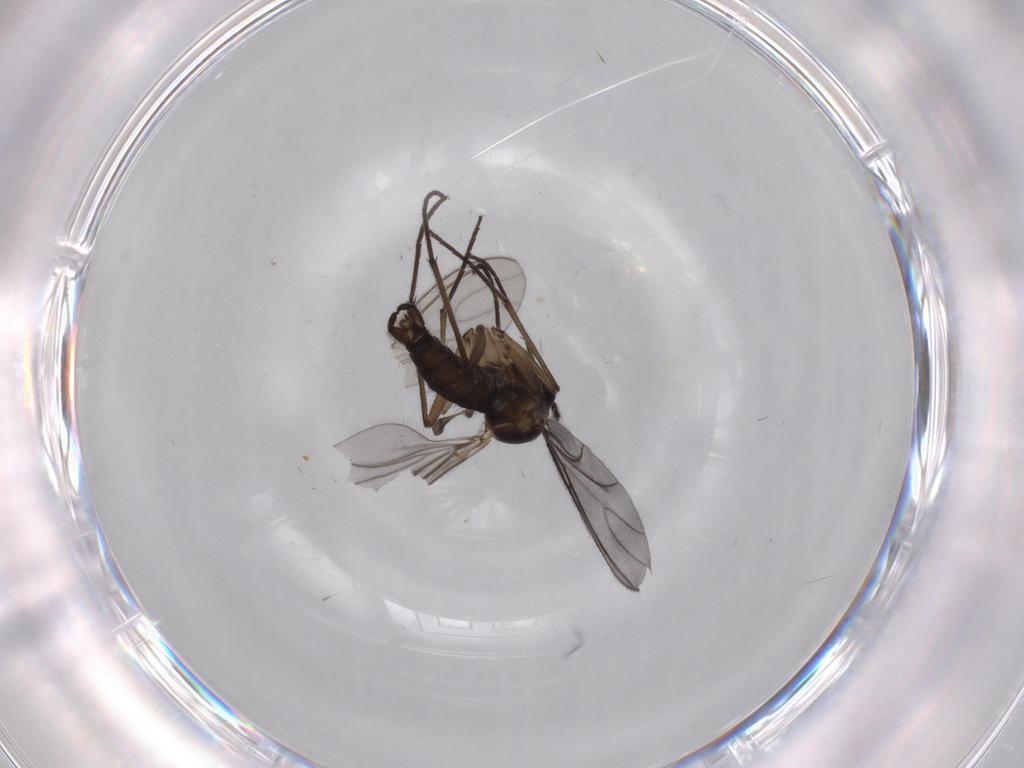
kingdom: Animalia
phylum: Arthropoda
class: Insecta
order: Diptera
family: Sciaridae
